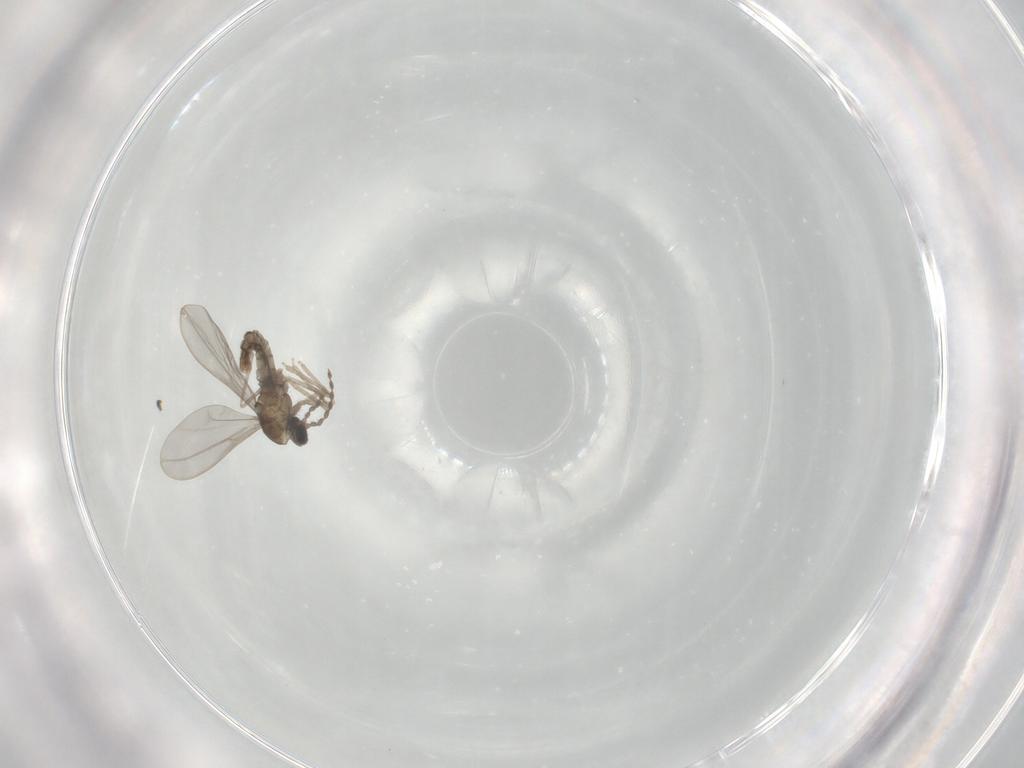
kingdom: Animalia
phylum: Arthropoda
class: Insecta
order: Diptera
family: Cecidomyiidae
